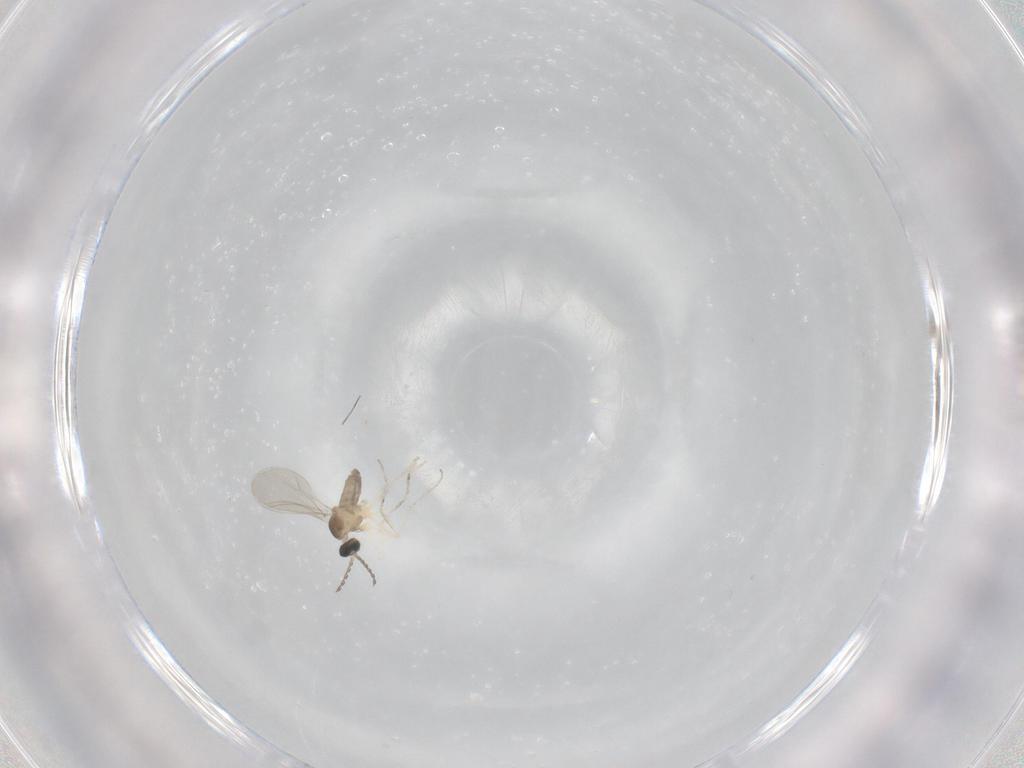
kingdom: Animalia
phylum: Arthropoda
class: Insecta
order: Diptera
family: Cecidomyiidae
